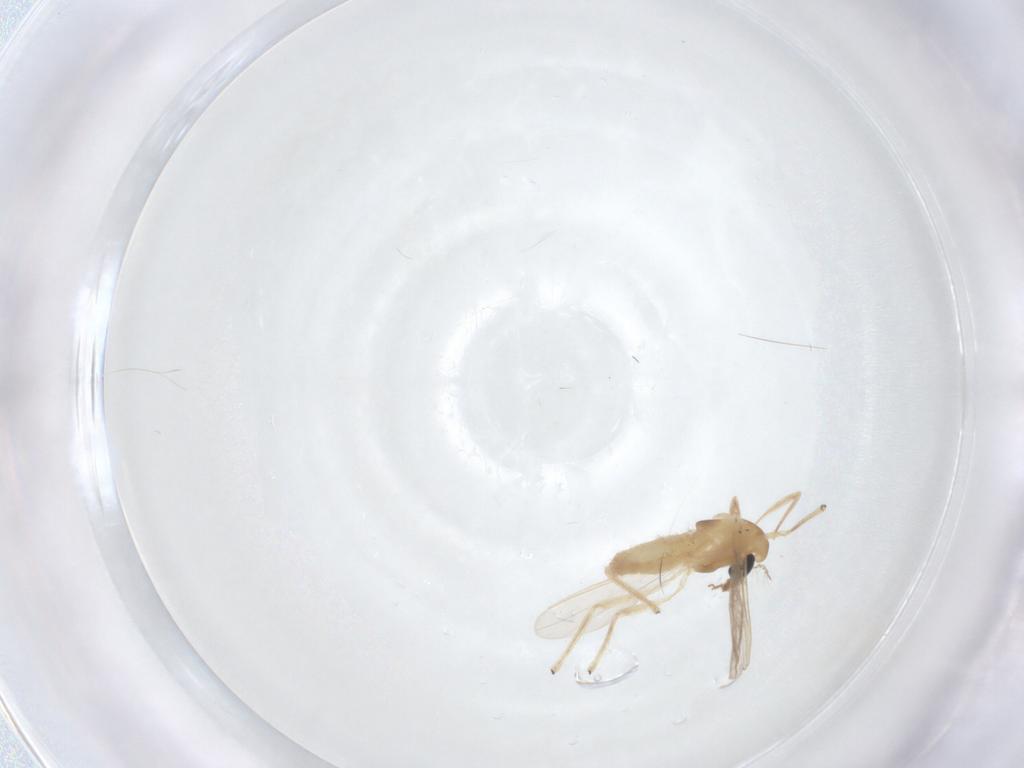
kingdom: Animalia
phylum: Arthropoda
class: Insecta
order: Diptera
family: Chironomidae
